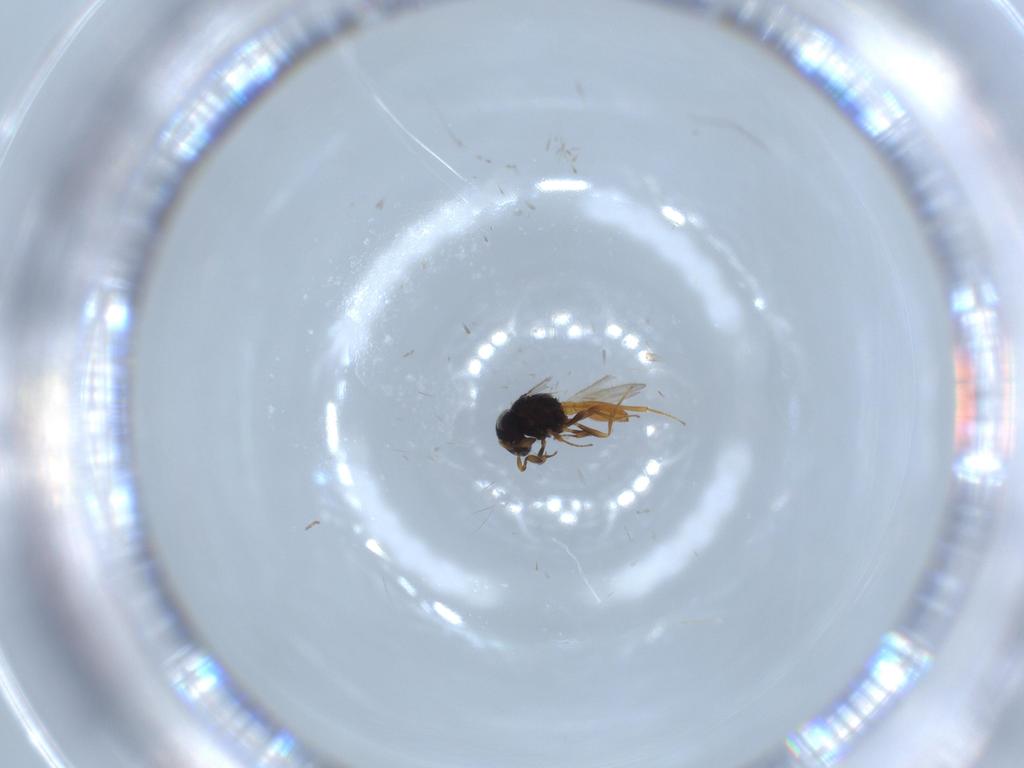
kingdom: Animalia
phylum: Arthropoda
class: Insecta
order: Hymenoptera
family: Scelionidae
